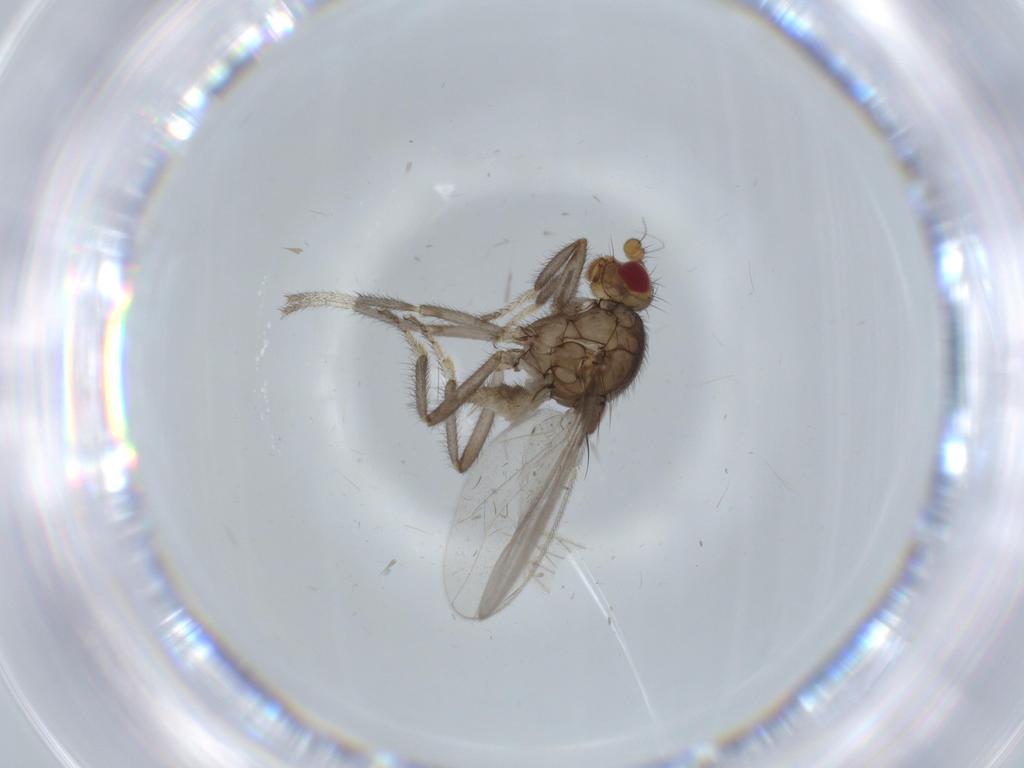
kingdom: Animalia
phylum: Arthropoda
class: Insecta
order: Diptera
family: Sphaeroceridae
